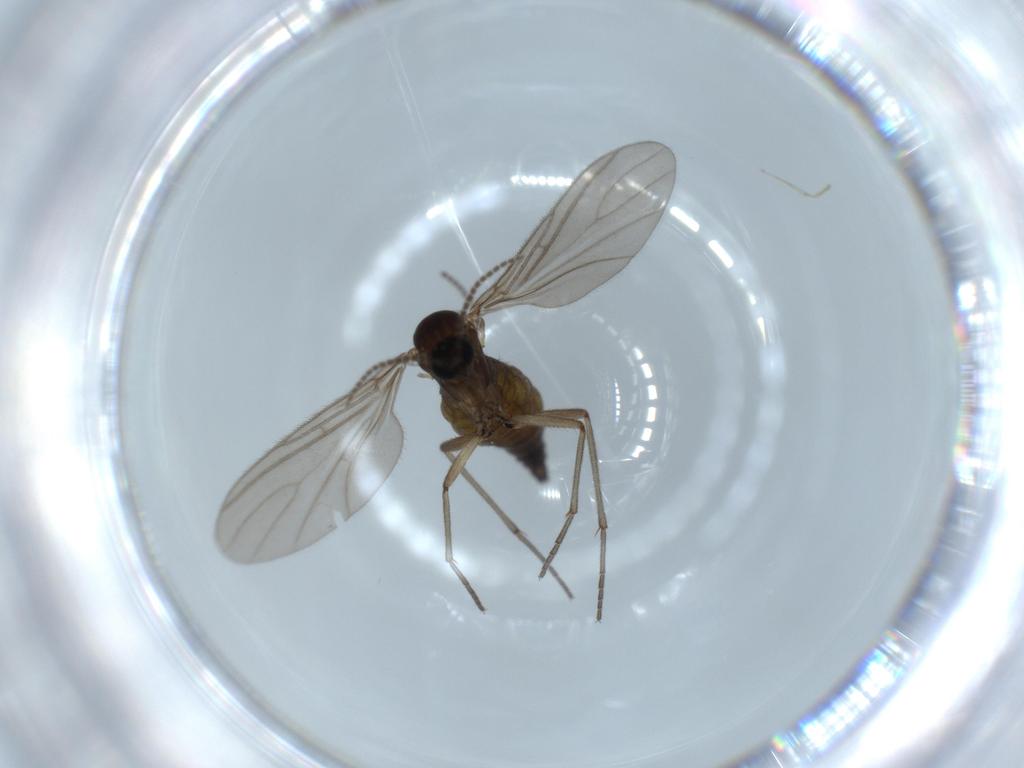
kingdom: Animalia
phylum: Arthropoda
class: Insecta
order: Diptera
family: Sciaridae
